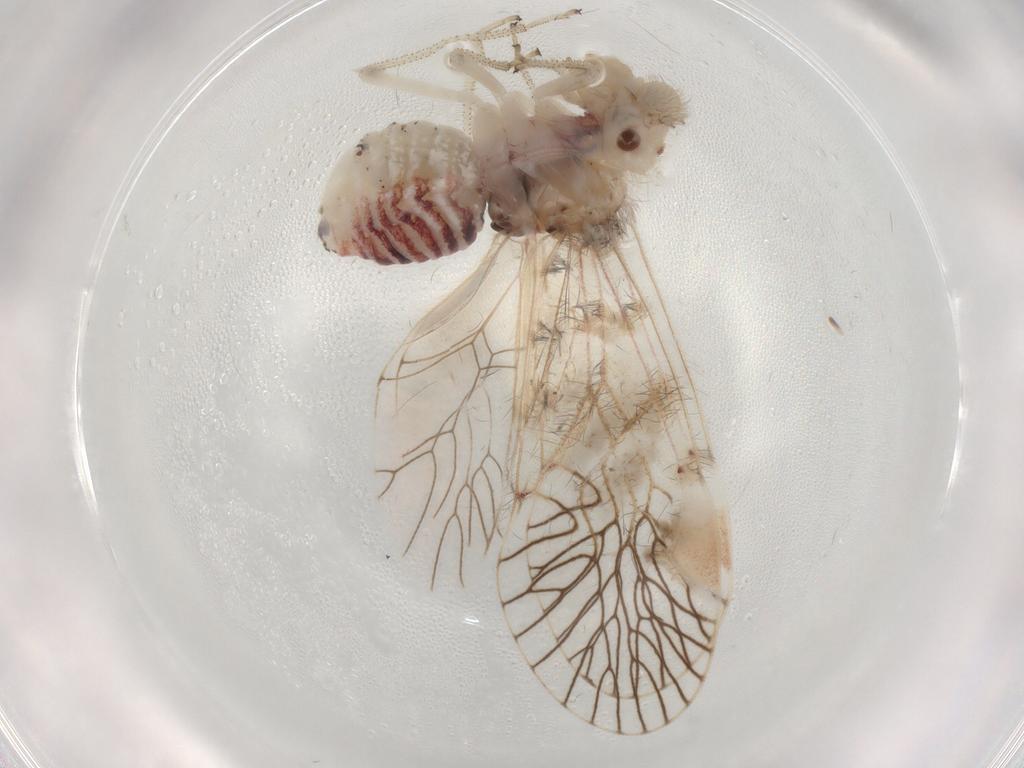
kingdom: Animalia
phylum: Arthropoda
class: Insecta
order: Psocodea
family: Amphipsocidae
